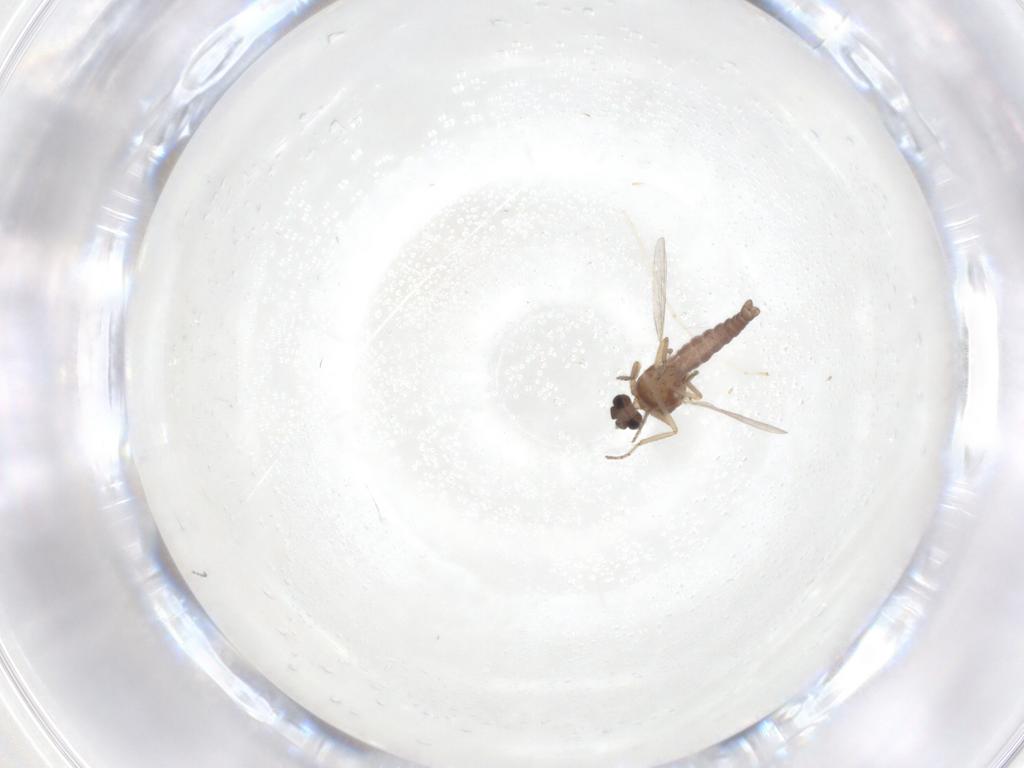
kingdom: Animalia
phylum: Arthropoda
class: Insecta
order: Diptera
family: Ceratopogonidae
